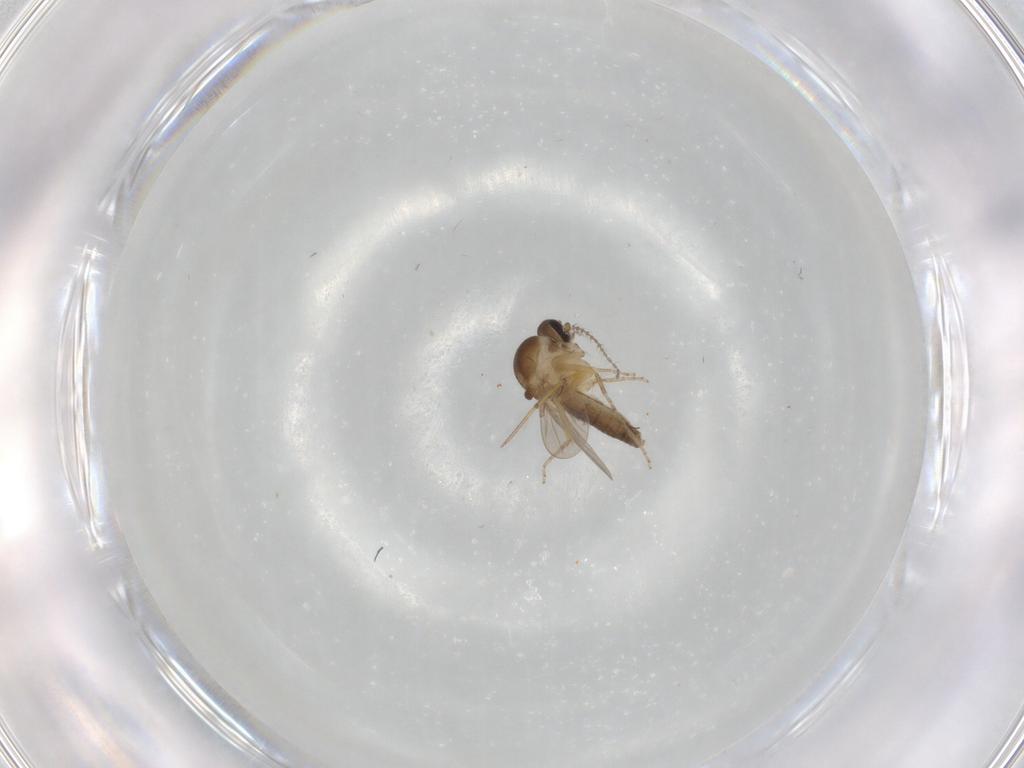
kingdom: Animalia
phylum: Arthropoda
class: Insecta
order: Diptera
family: Ceratopogonidae
